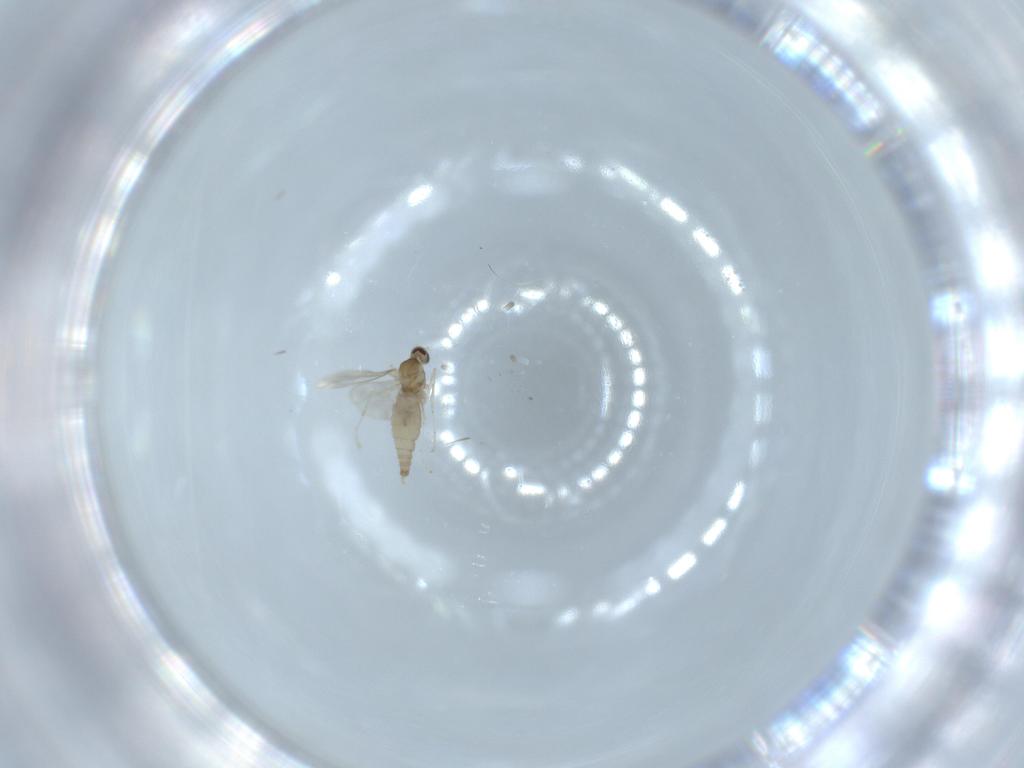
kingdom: Animalia
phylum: Arthropoda
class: Insecta
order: Diptera
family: Cecidomyiidae
